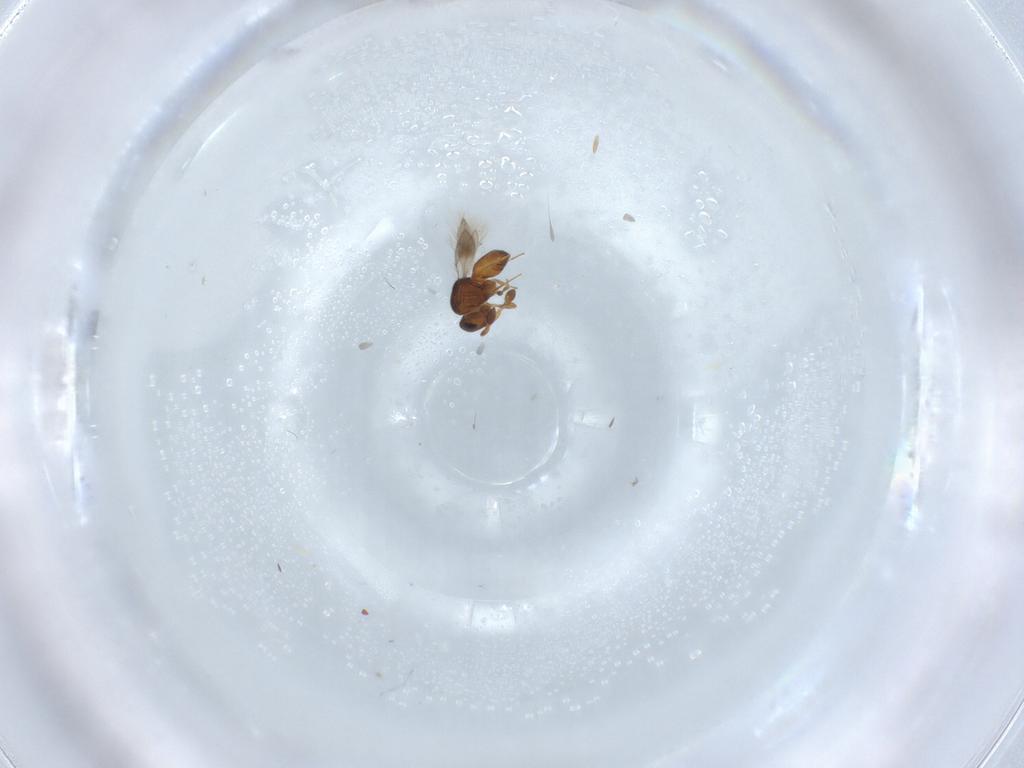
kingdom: Animalia
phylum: Arthropoda
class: Insecta
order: Hymenoptera
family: Scelionidae
